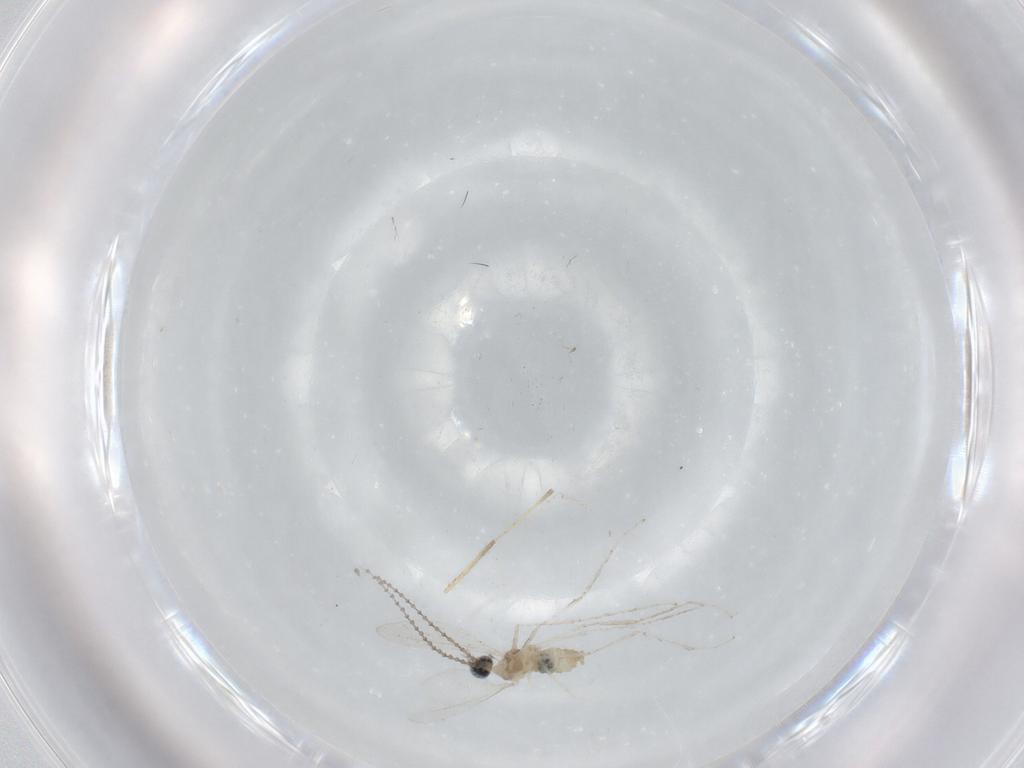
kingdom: Animalia
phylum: Arthropoda
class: Insecta
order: Diptera
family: Cecidomyiidae
